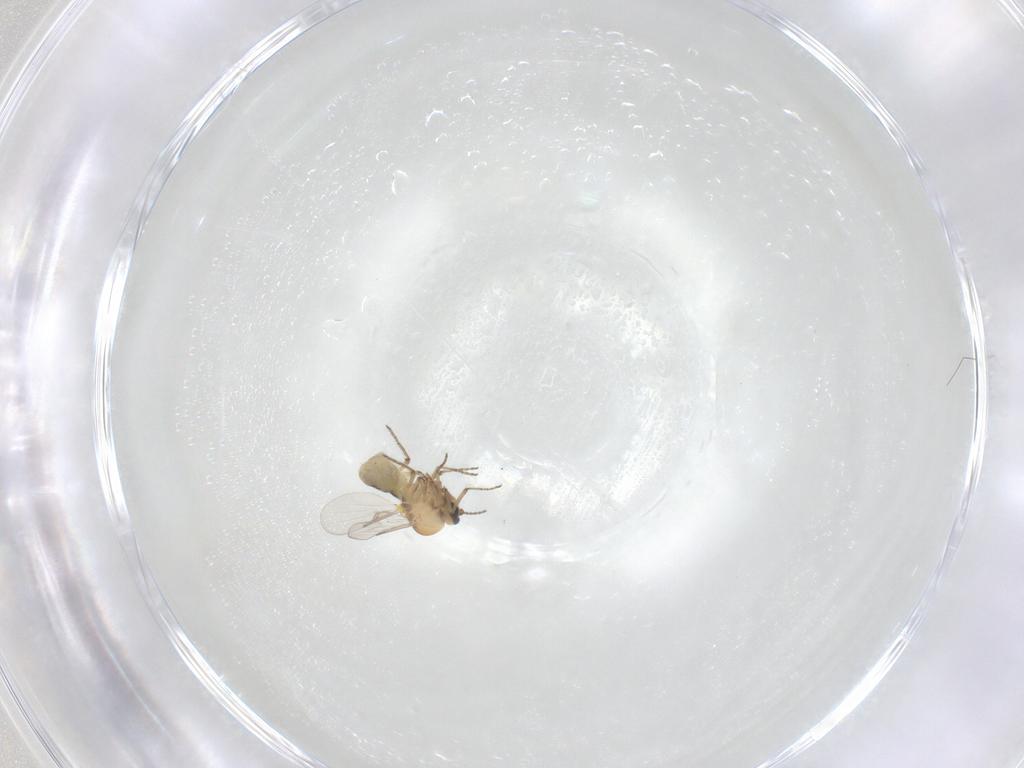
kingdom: Animalia
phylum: Arthropoda
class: Insecta
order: Diptera
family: Ceratopogonidae
